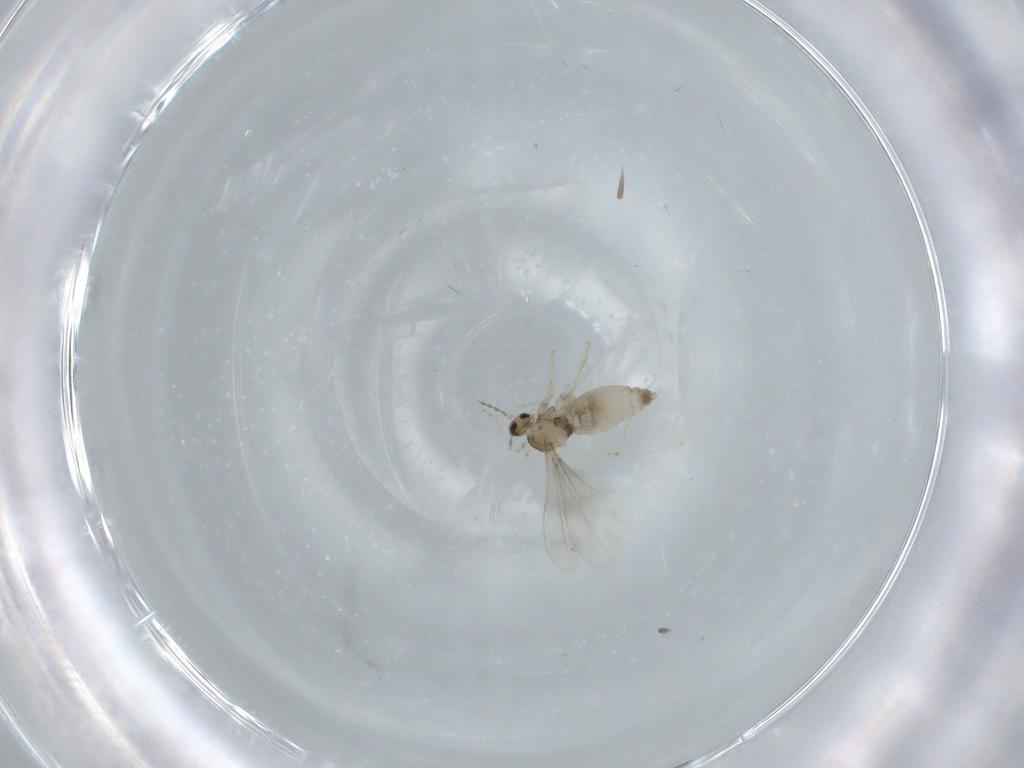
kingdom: Animalia
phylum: Arthropoda
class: Insecta
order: Diptera
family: Cecidomyiidae
